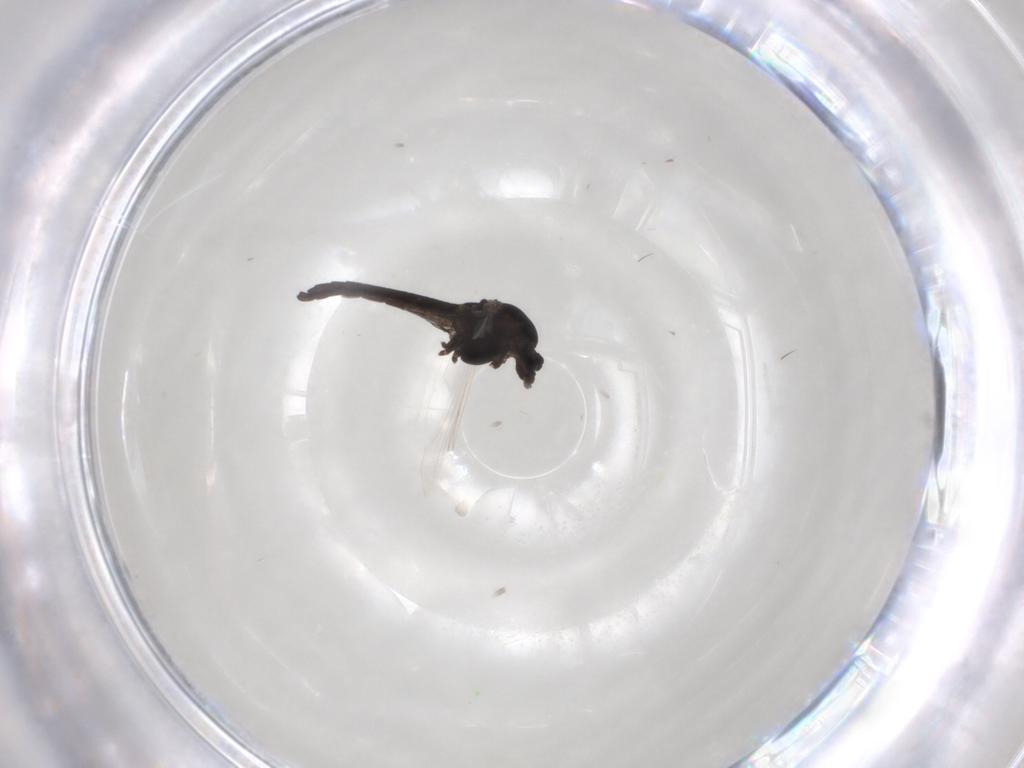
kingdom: Animalia
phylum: Arthropoda
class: Insecta
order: Diptera
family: Chironomidae
